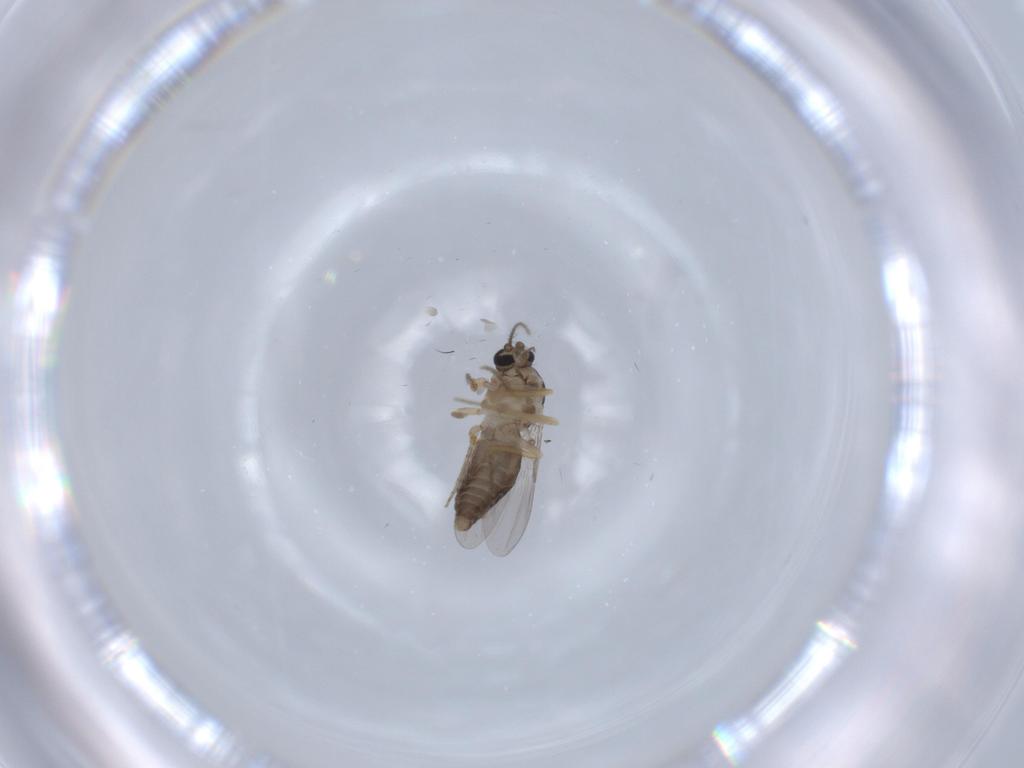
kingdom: Animalia
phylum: Arthropoda
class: Insecta
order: Diptera
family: Ceratopogonidae
